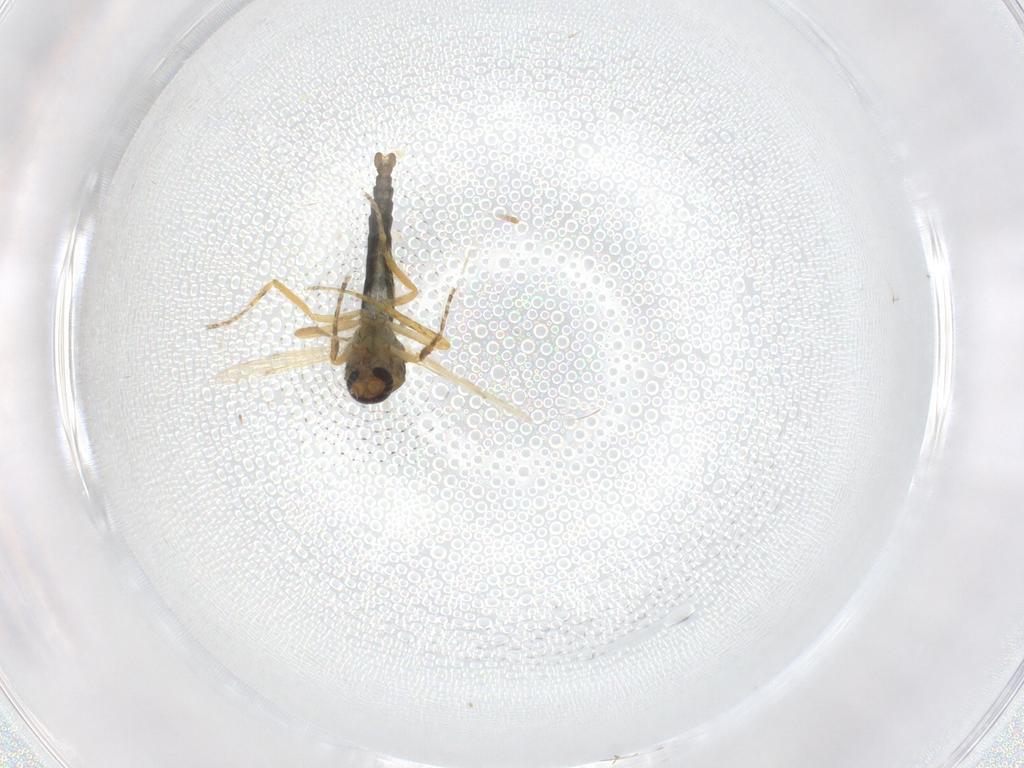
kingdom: Animalia
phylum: Arthropoda
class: Insecta
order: Diptera
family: Ceratopogonidae
